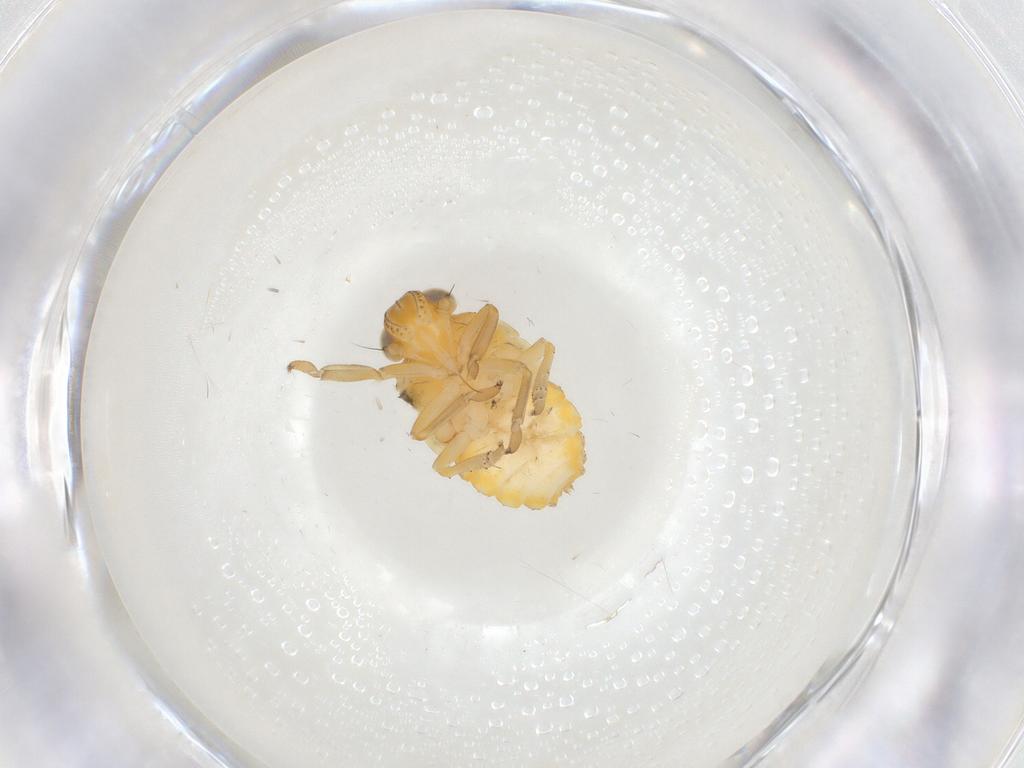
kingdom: Animalia
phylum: Arthropoda
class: Insecta
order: Hemiptera
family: Issidae
